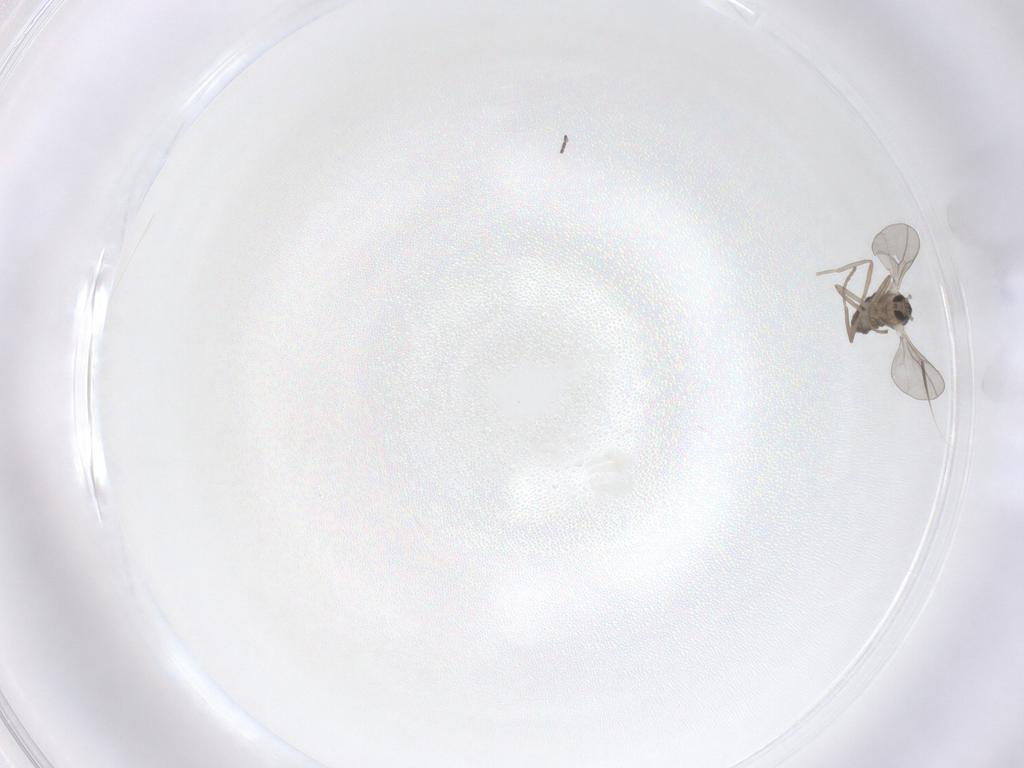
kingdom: Animalia
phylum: Arthropoda
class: Insecta
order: Diptera
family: Cecidomyiidae
